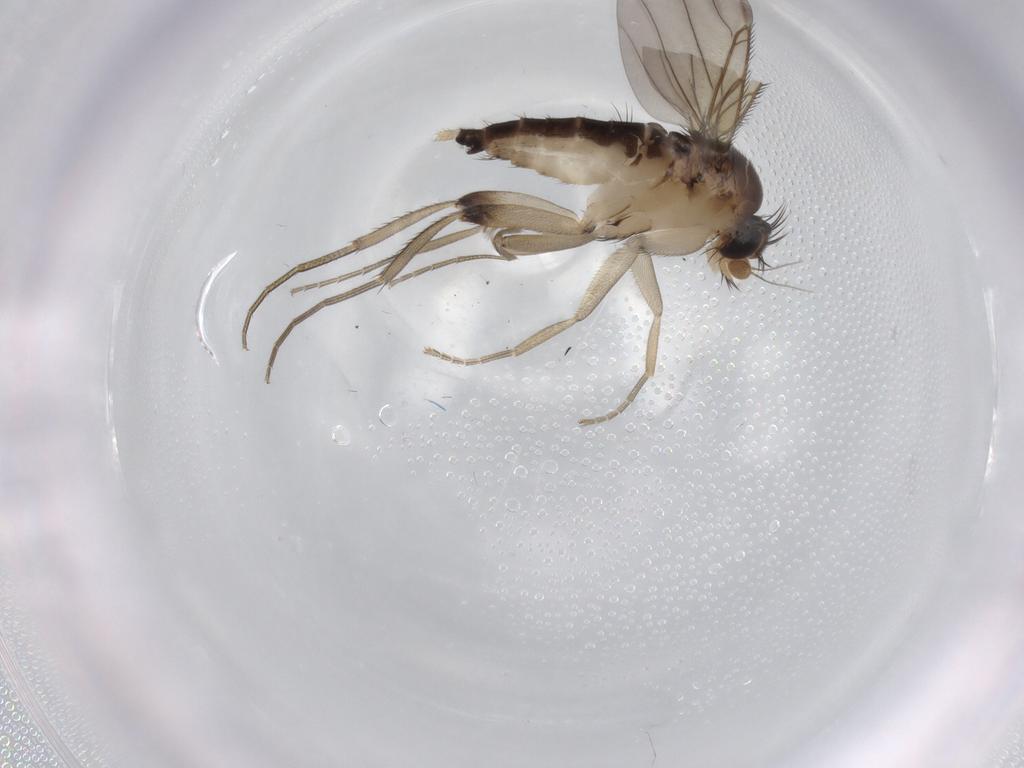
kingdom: Animalia
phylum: Arthropoda
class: Insecta
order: Diptera
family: Phoridae
